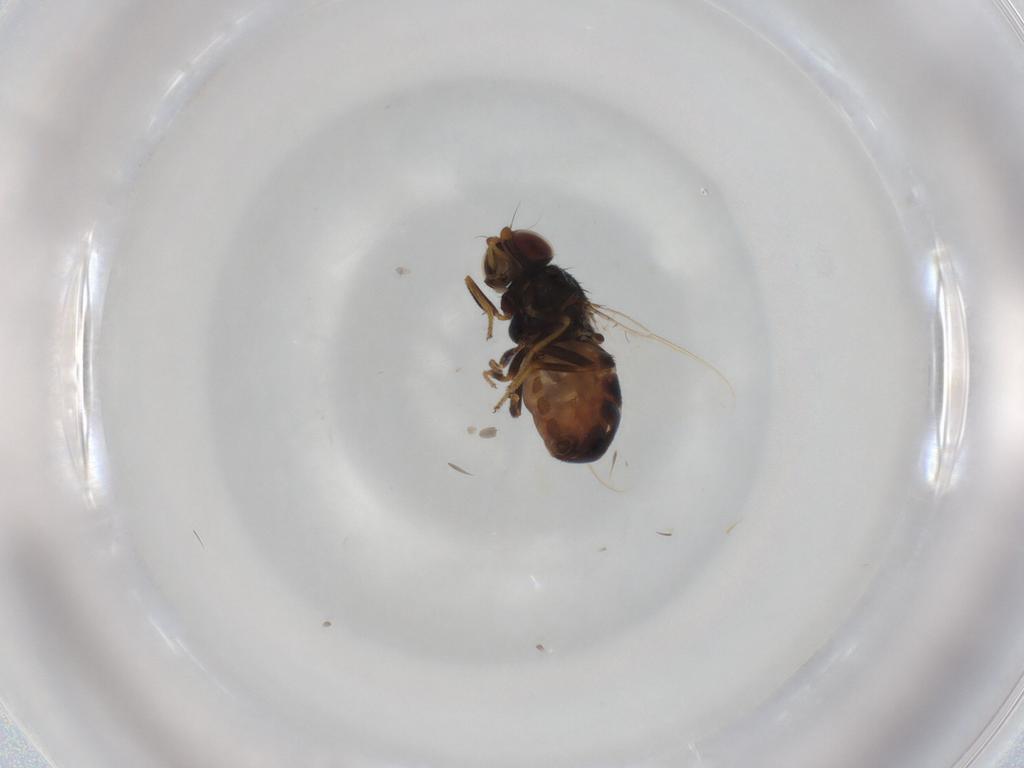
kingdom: Animalia
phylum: Arthropoda
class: Insecta
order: Diptera
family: Chloropidae
